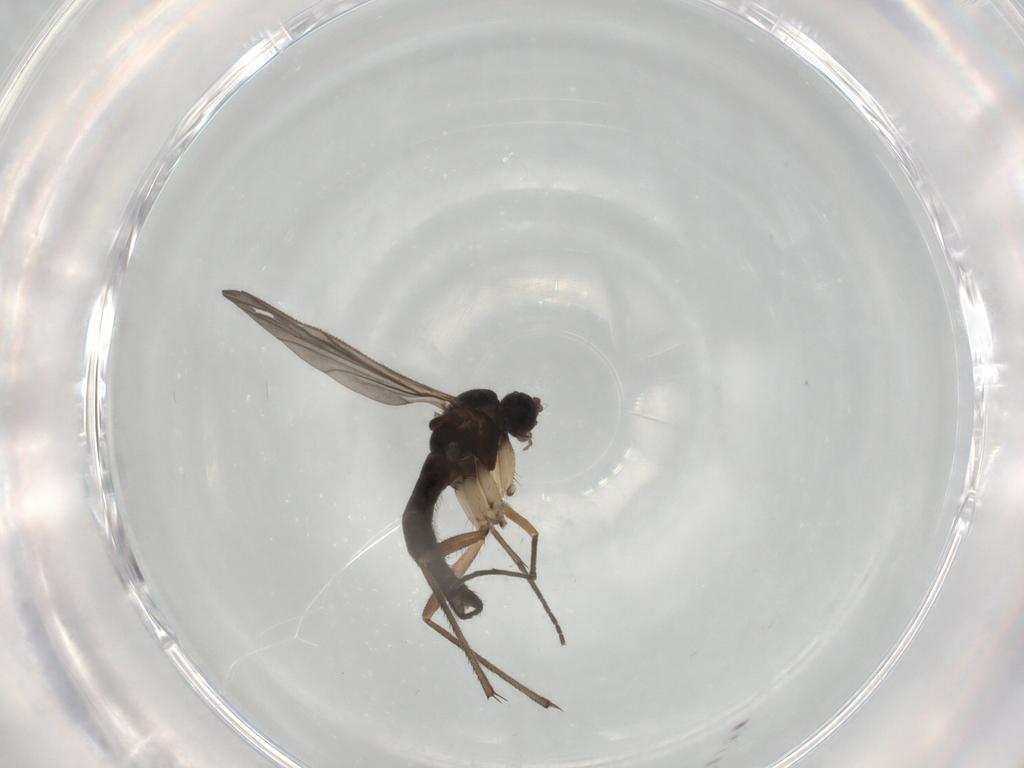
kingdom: Animalia
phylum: Arthropoda
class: Insecta
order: Diptera
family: Sciaridae
